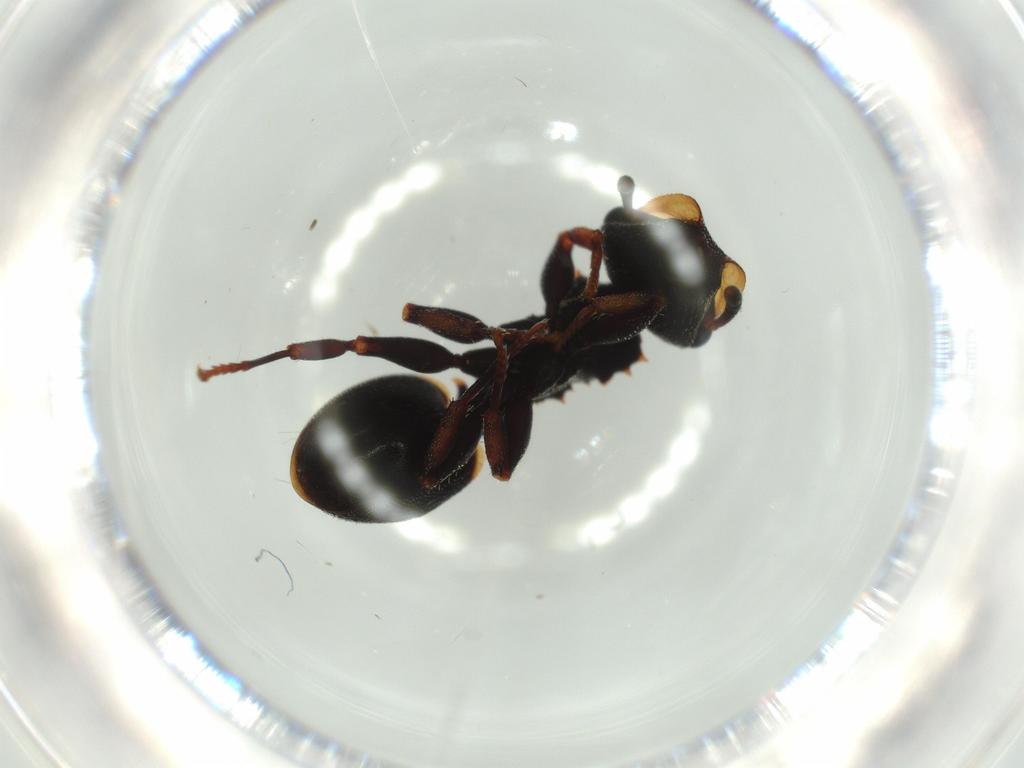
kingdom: Animalia
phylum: Arthropoda
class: Insecta
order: Hymenoptera
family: Formicidae
